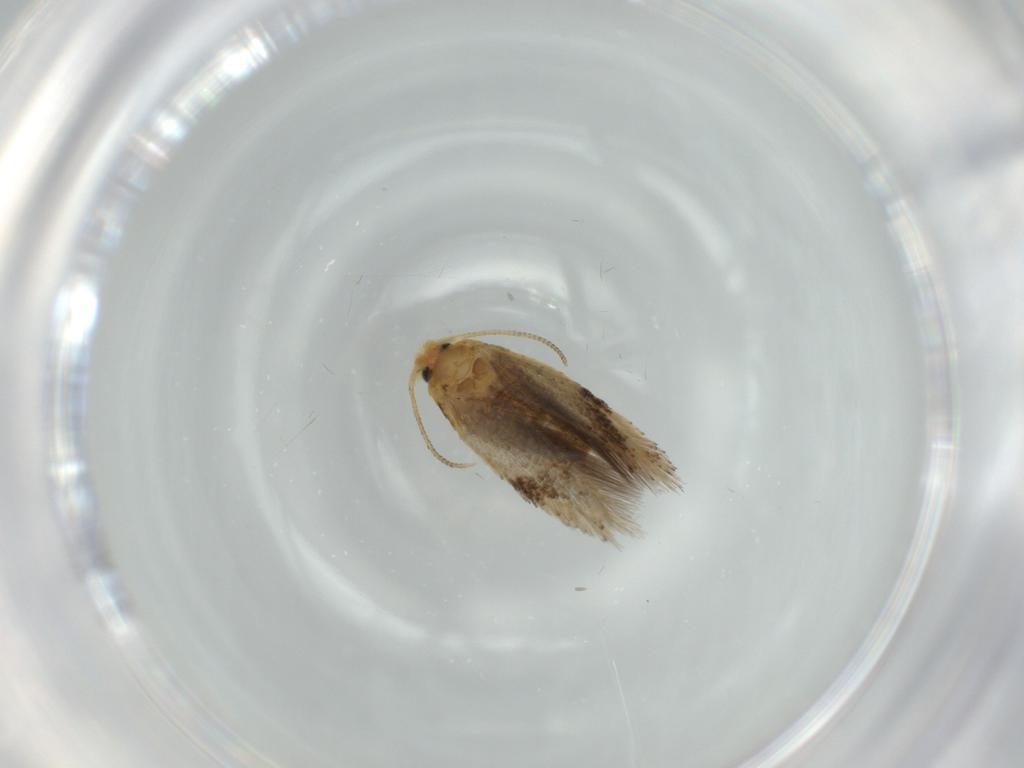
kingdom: Animalia
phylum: Arthropoda
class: Insecta
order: Lepidoptera
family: Nepticulidae
